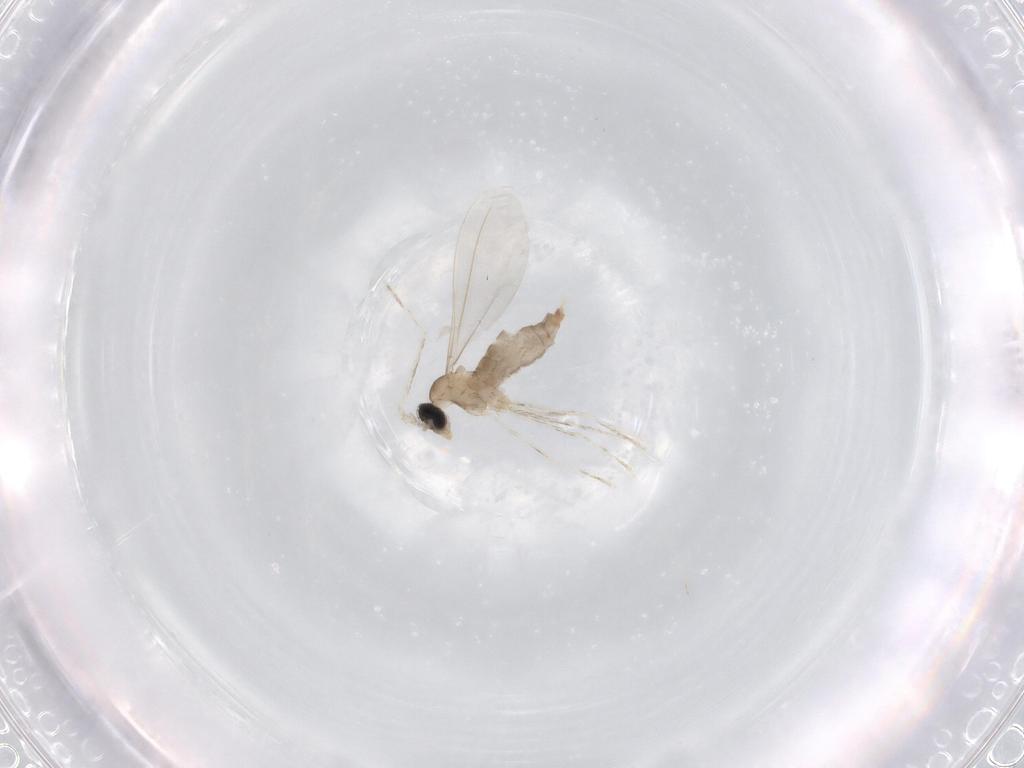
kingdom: Animalia
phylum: Arthropoda
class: Insecta
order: Diptera
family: Cecidomyiidae
